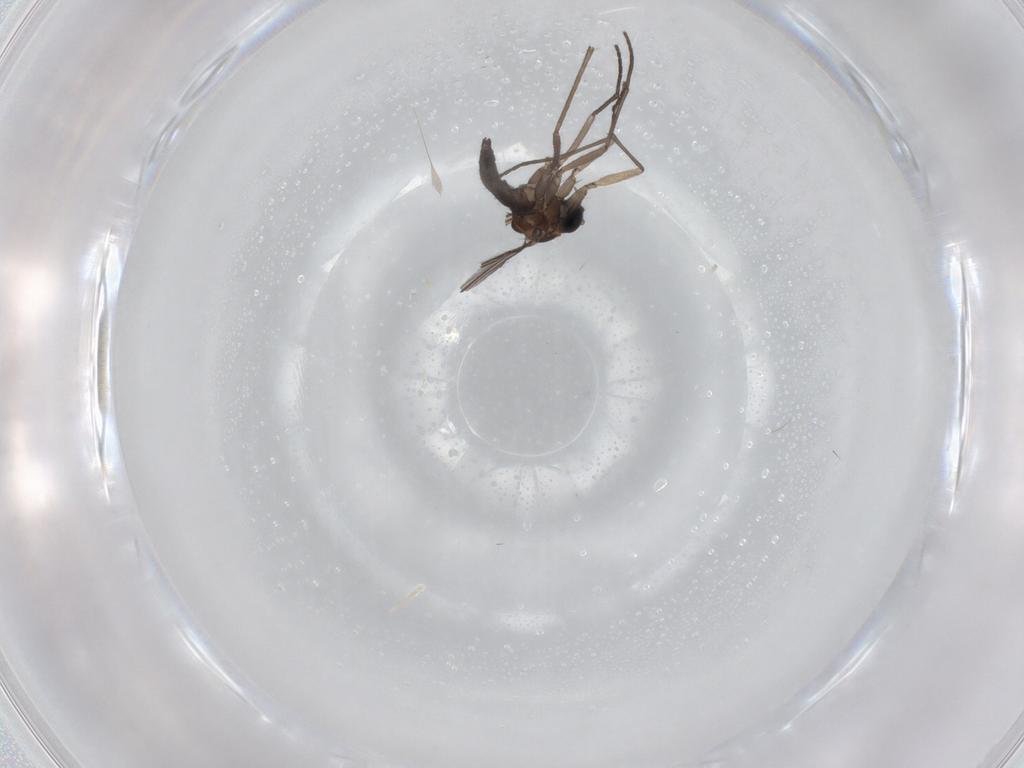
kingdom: Animalia
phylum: Arthropoda
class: Insecta
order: Diptera
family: Sciaridae
